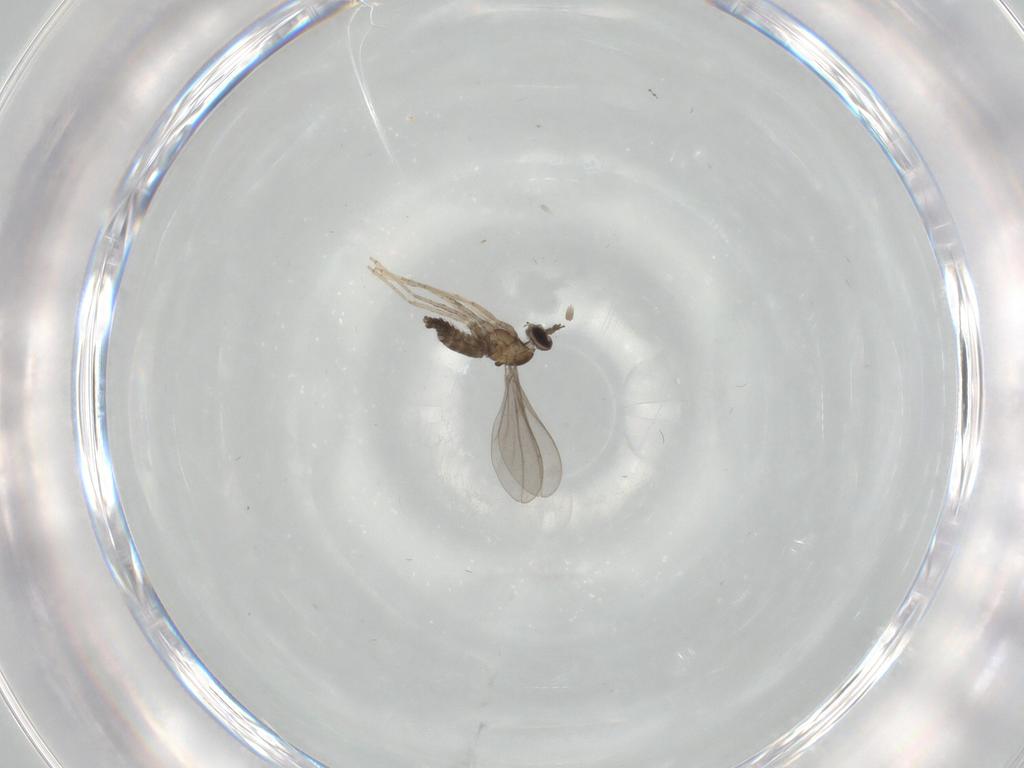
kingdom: Animalia
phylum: Arthropoda
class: Insecta
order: Diptera
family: Ceratopogonidae
